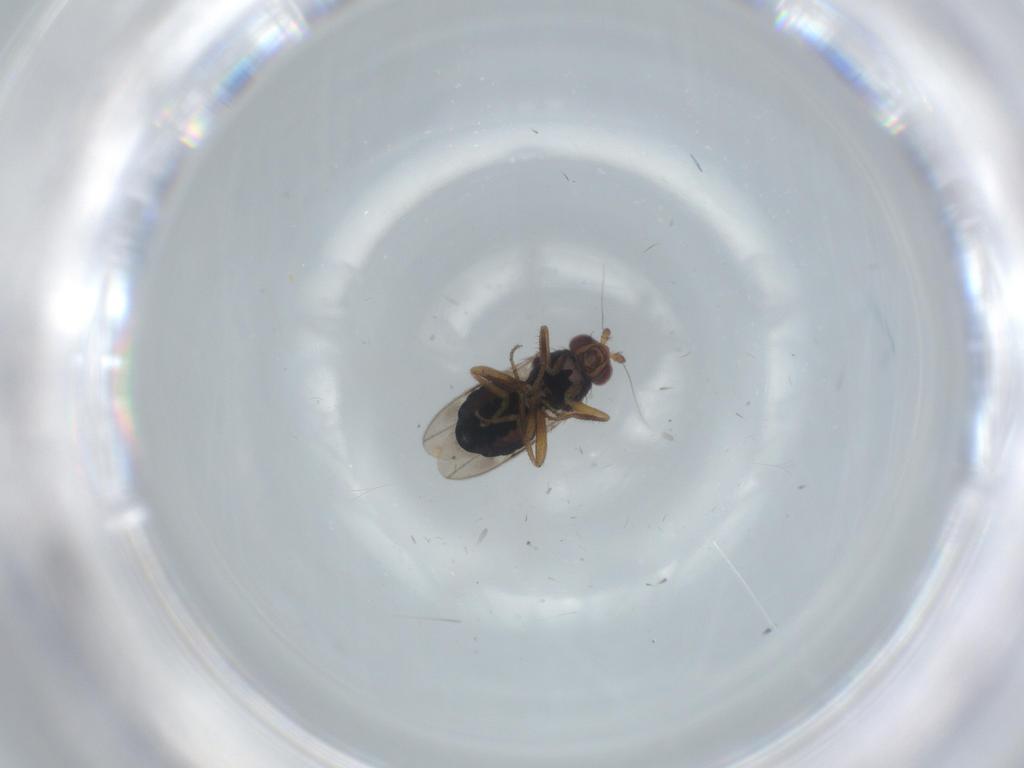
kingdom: Animalia
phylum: Arthropoda
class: Insecta
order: Diptera
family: Sphaeroceridae
